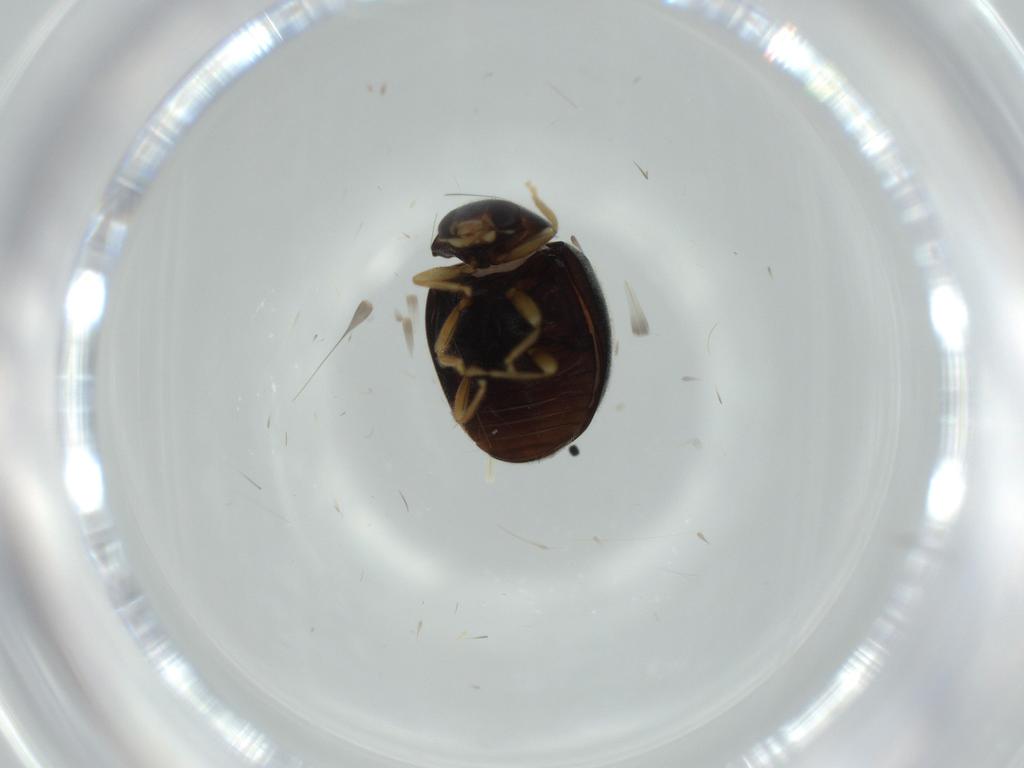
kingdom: Animalia
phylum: Arthropoda
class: Insecta
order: Coleoptera
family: Coccinellidae
